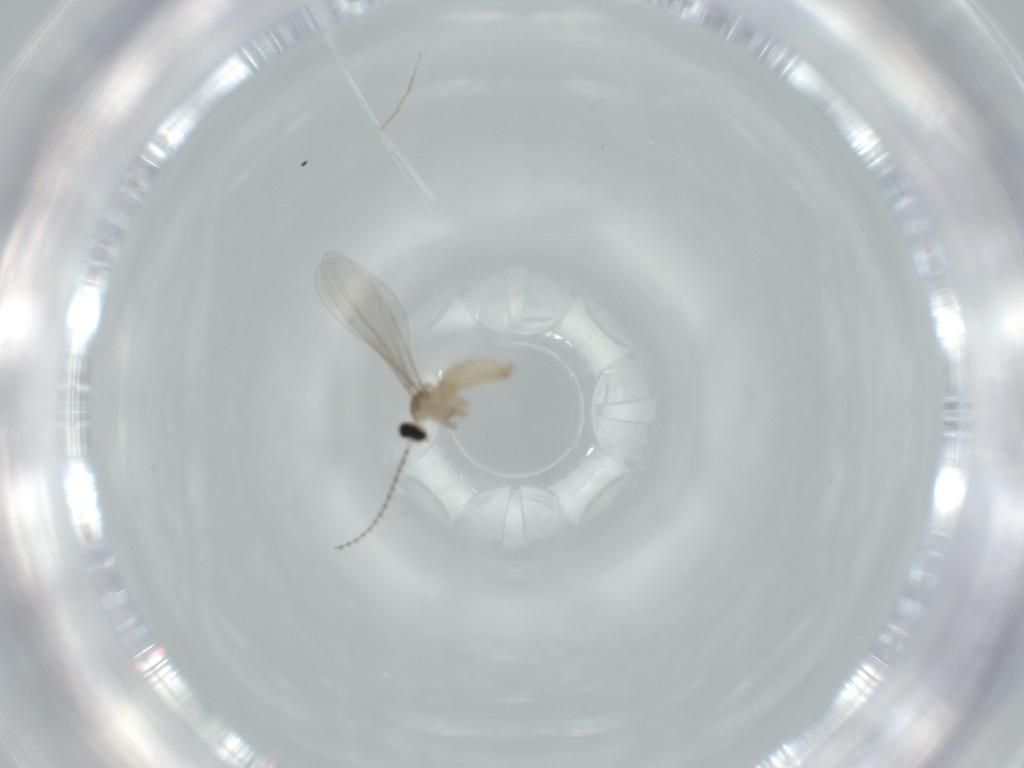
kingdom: Animalia
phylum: Arthropoda
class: Insecta
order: Diptera
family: Cecidomyiidae
